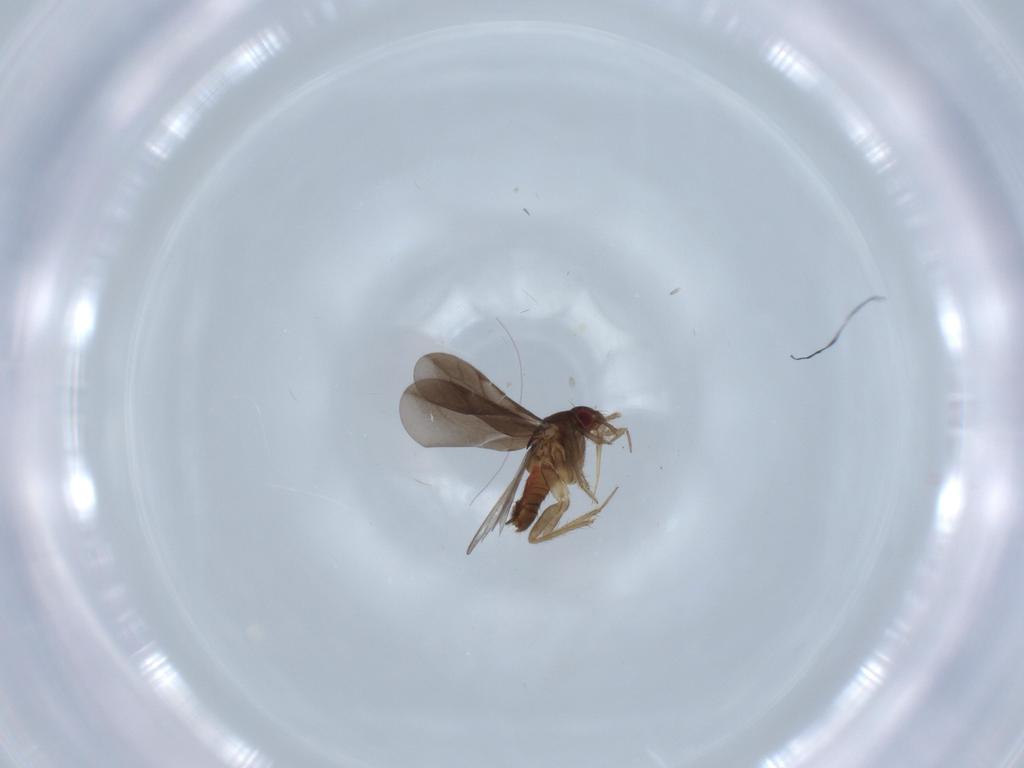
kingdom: Animalia
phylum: Arthropoda
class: Insecta
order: Hemiptera
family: Ceratocombidae
